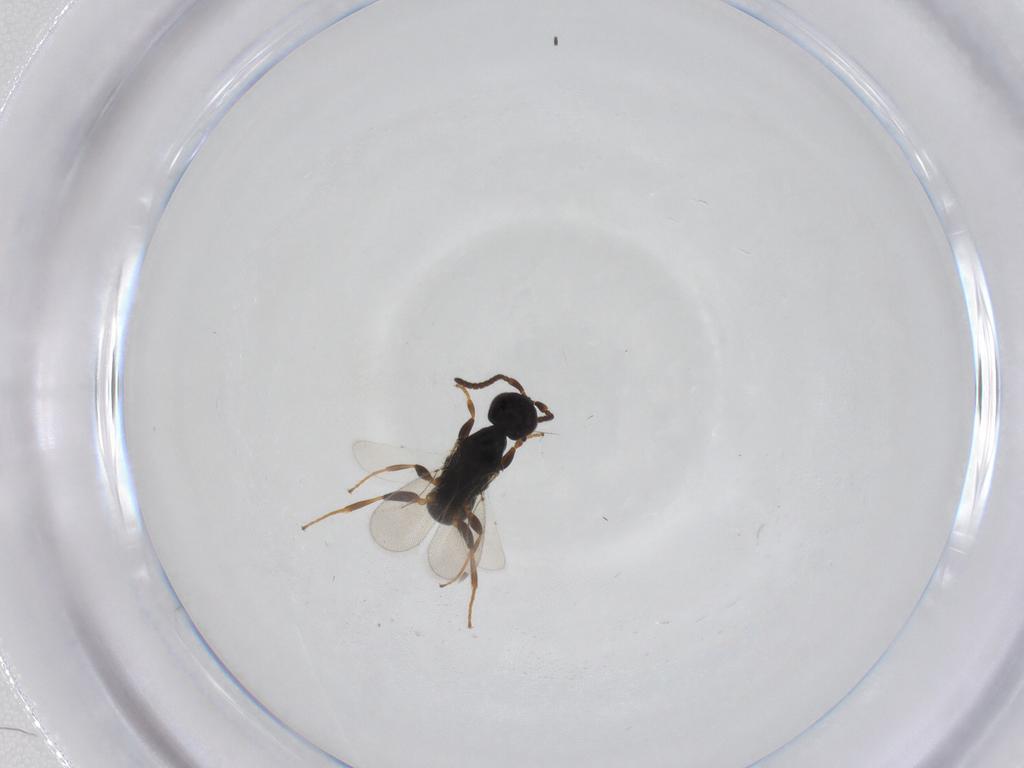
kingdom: Animalia
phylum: Arthropoda
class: Insecta
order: Hymenoptera
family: Bethylidae
